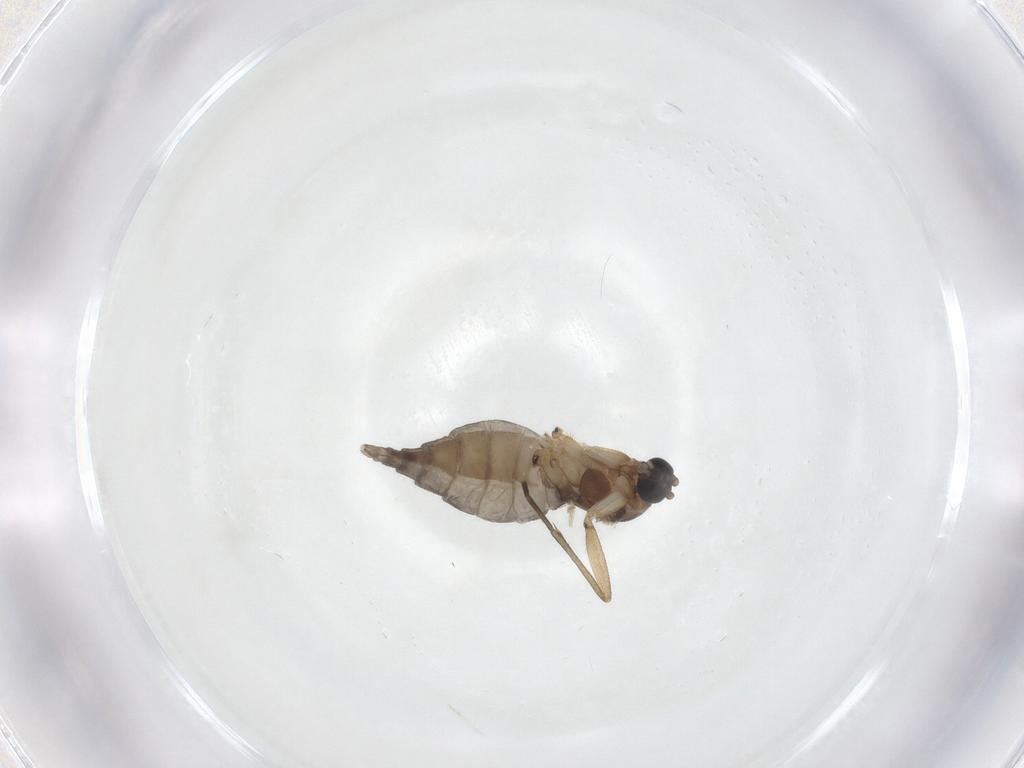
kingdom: Animalia
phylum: Arthropoda
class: Insecta
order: Diptera
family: Sciaridae
